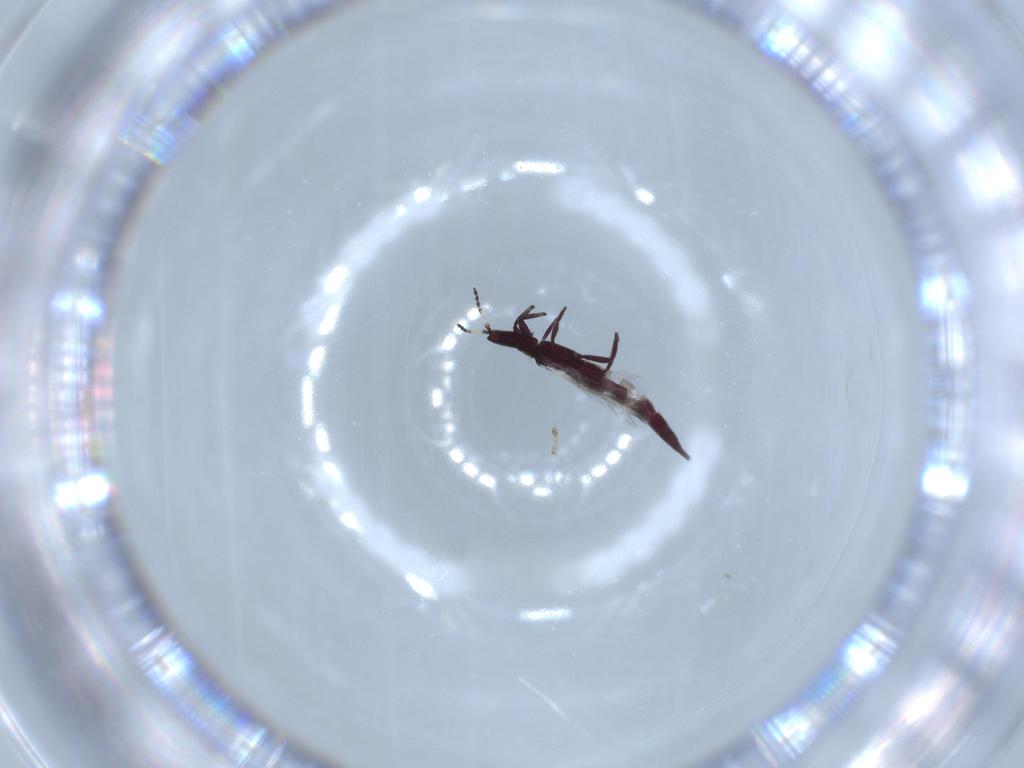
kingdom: Animalia
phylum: Arthropoda
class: Insecta
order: Thysanoptera
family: Phlaeothripidae
